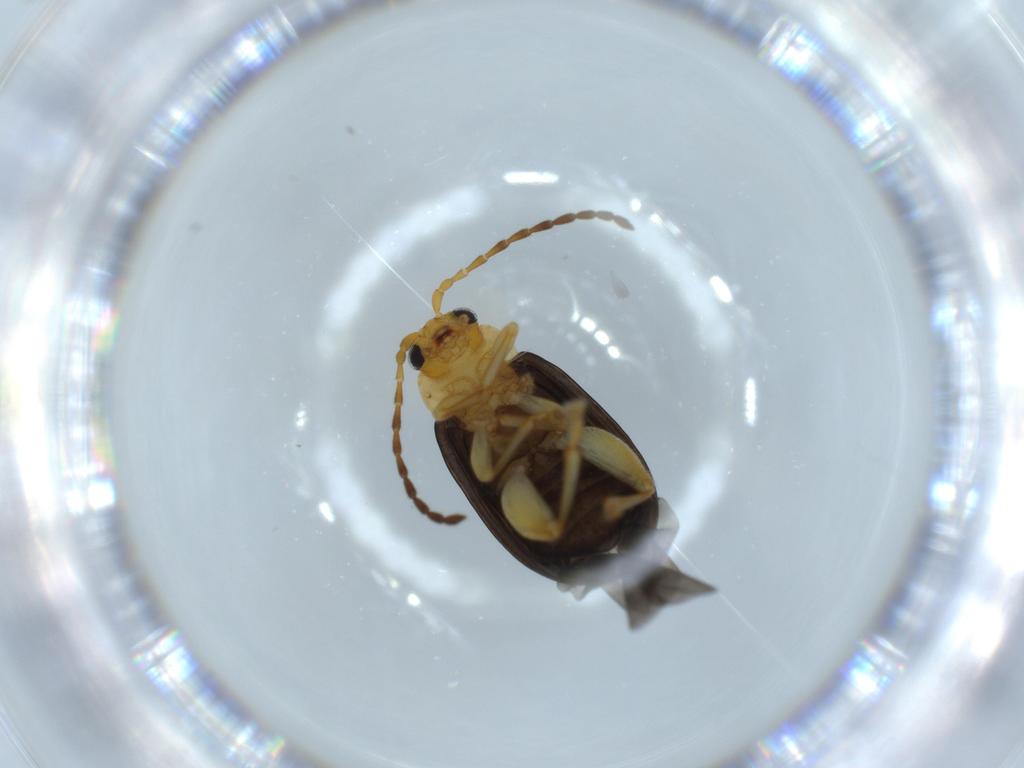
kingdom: Animalia
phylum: Arthropoda
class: Insecta
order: Coleoptera
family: Chrysomelidae
